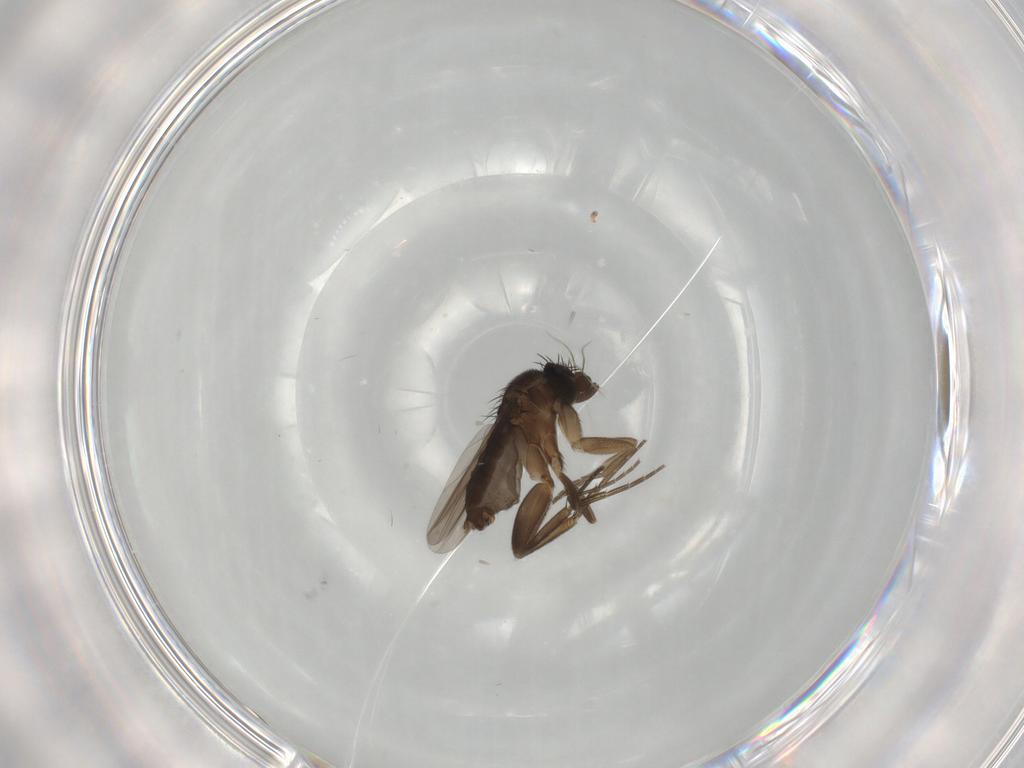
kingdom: Animalia
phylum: Arthropoda
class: Insecta
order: Diptera
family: Phoridae
